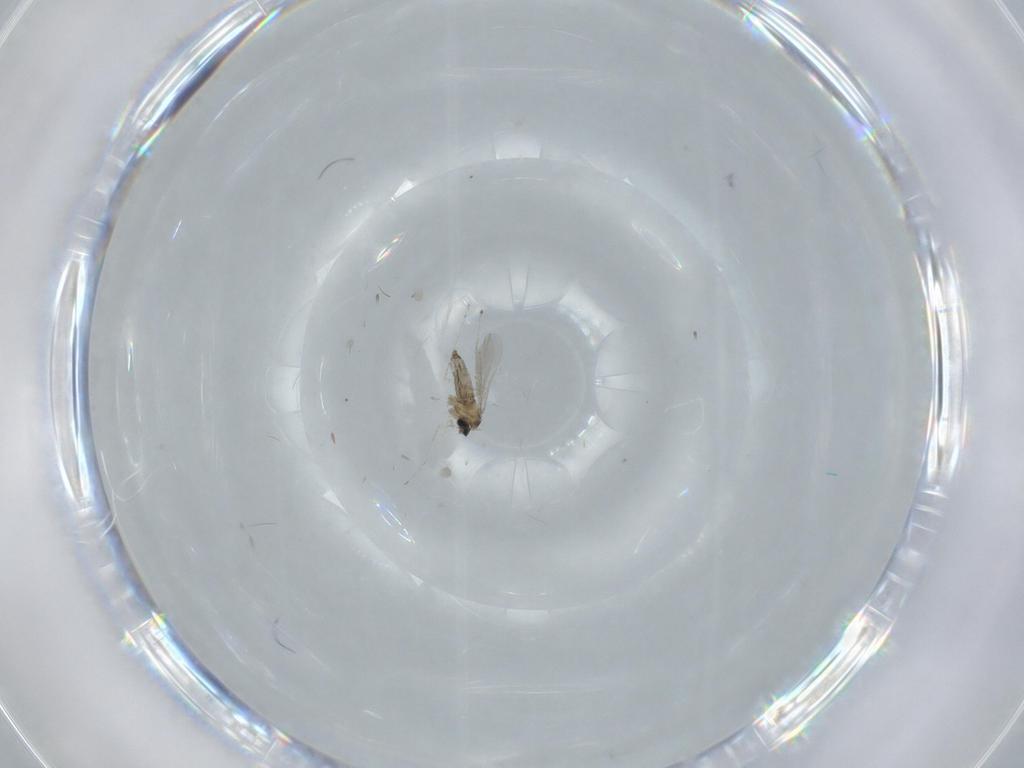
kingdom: Animalia
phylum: Arthropoda
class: Insecta
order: Diptera
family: Cecidomyiidae
